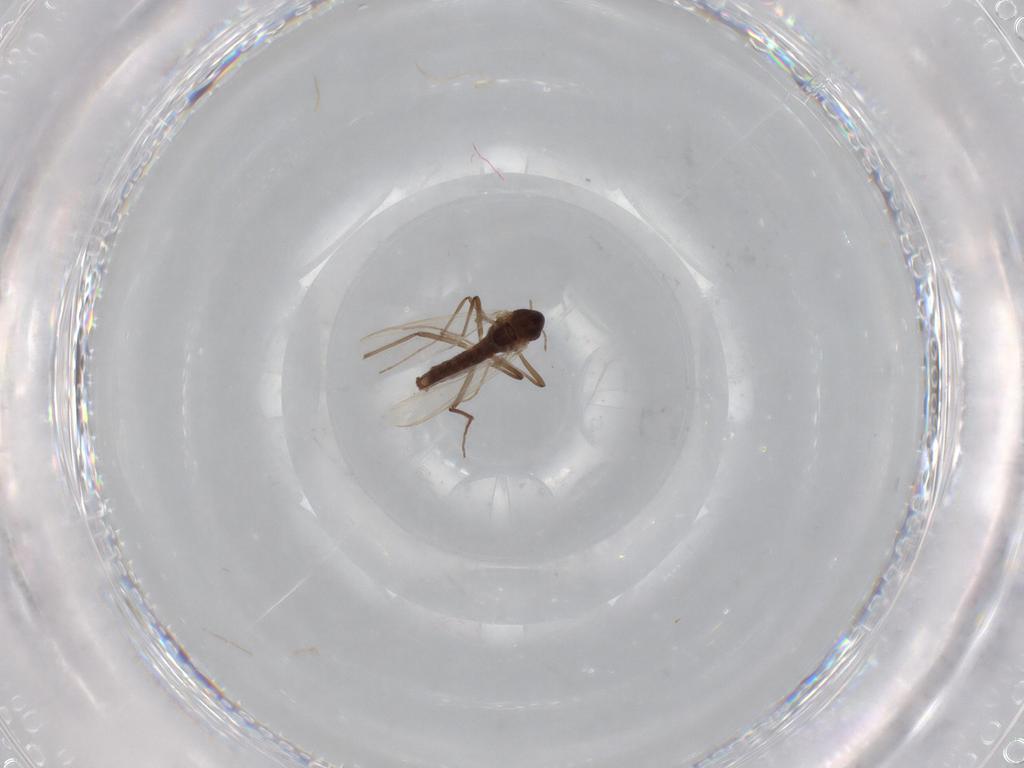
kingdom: Animalia
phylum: Arthropoda
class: Insecta
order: Diptera
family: Chironomidae
